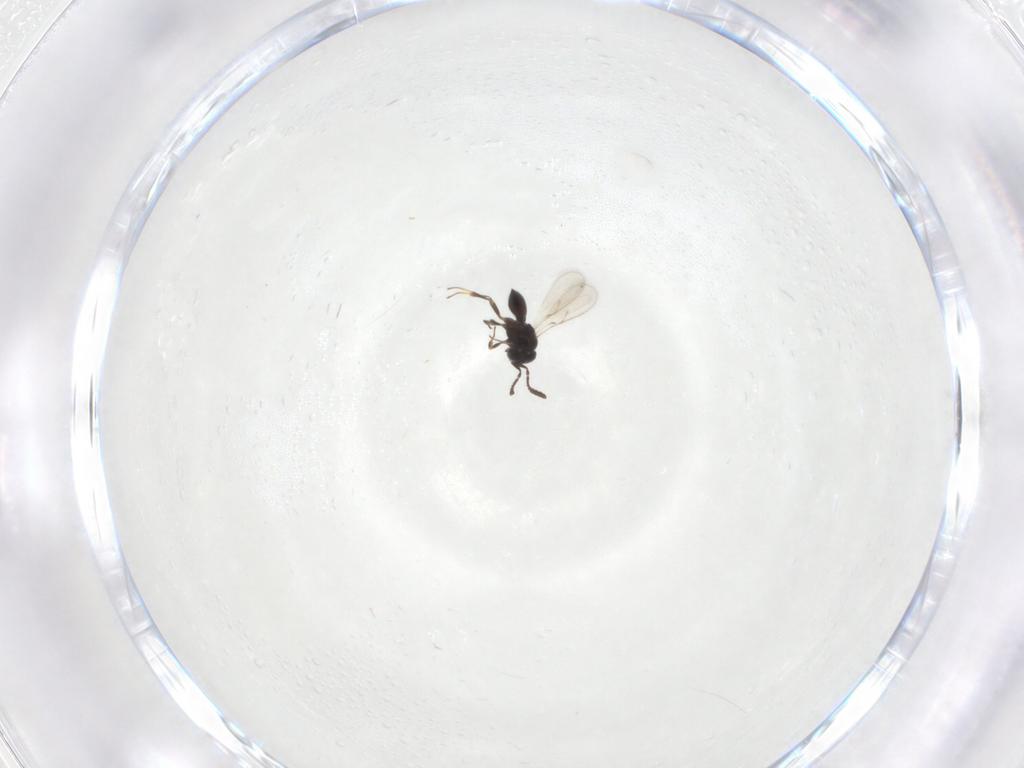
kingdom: Animalia
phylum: Arthropoda
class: Insecta
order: Hymenoptera
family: Scelionidae
